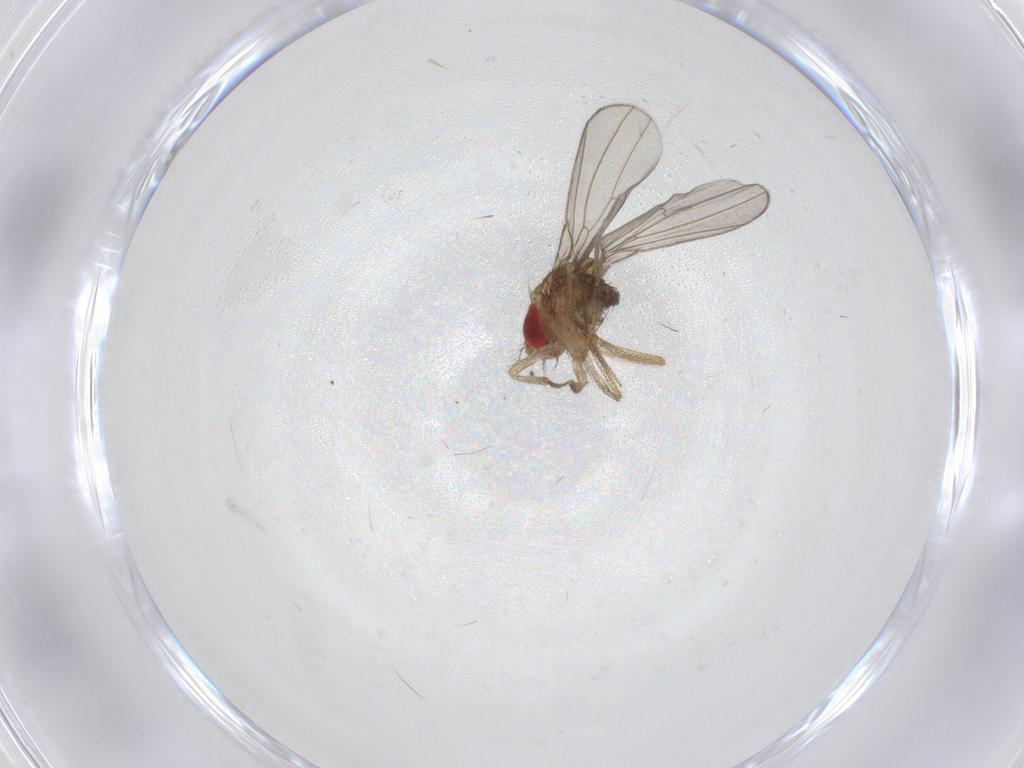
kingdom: Animalia
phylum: Arthropoda
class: Insecta
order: Diptera
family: Drosophilidae
